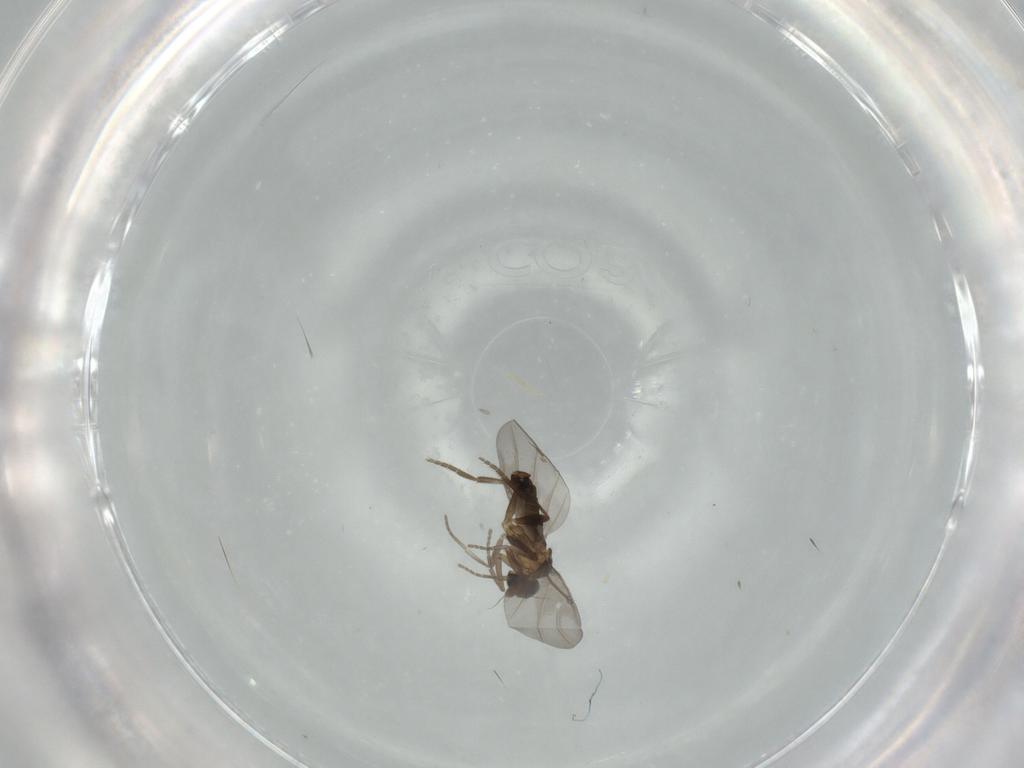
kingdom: Animalia
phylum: Arthropoda
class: Insecta
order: Diptera
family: Phoridae
